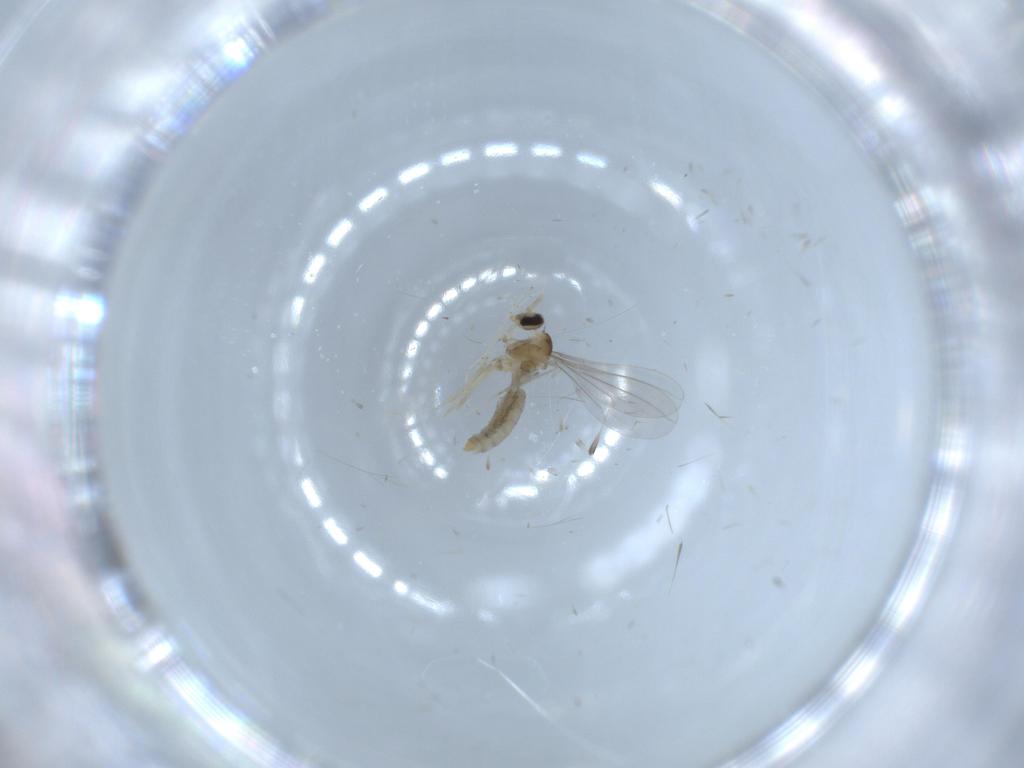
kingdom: Animalia
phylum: Arthropoda
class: Insecta
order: Diptera
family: Cecidomyiidae
